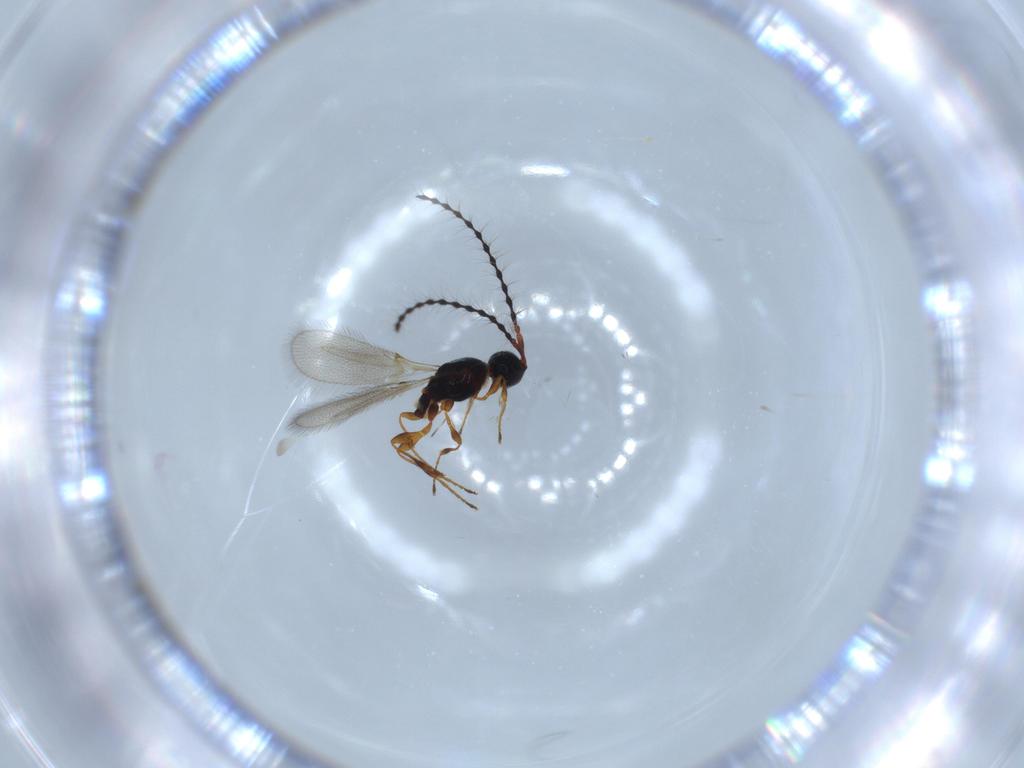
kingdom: Animalia
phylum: Arthropoda
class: Insecta
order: Hymenoptera
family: Diapriidae
